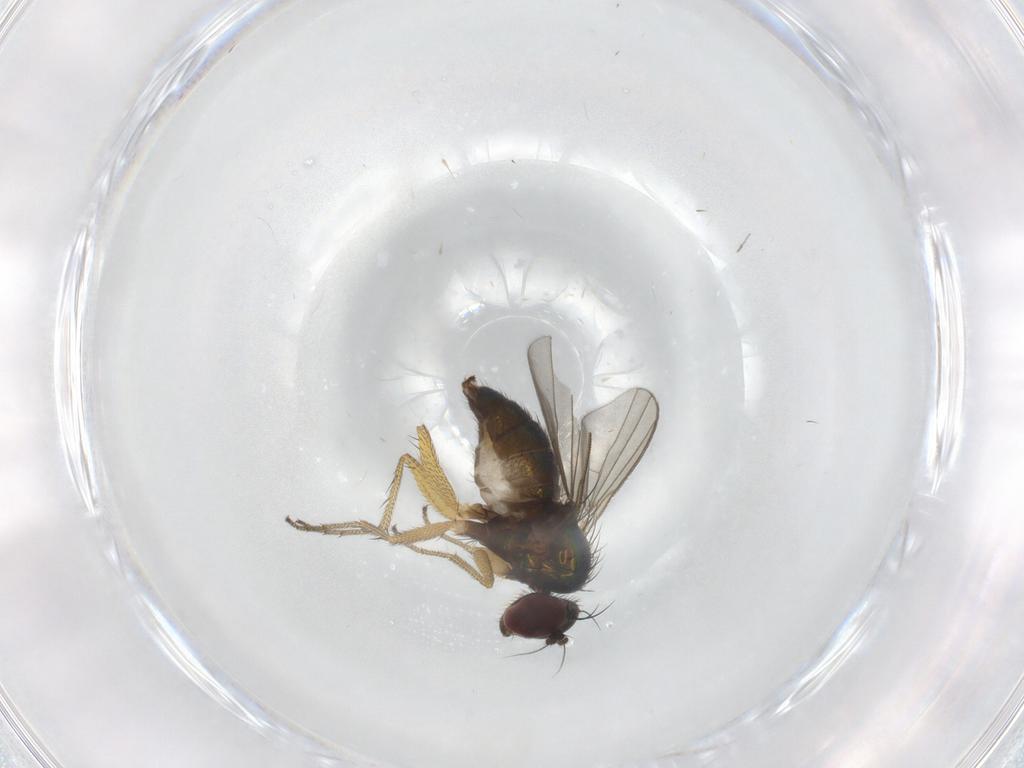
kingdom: Animalia
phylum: Arthropoda
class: Insecta
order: Diptera
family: Dolichopodidae
